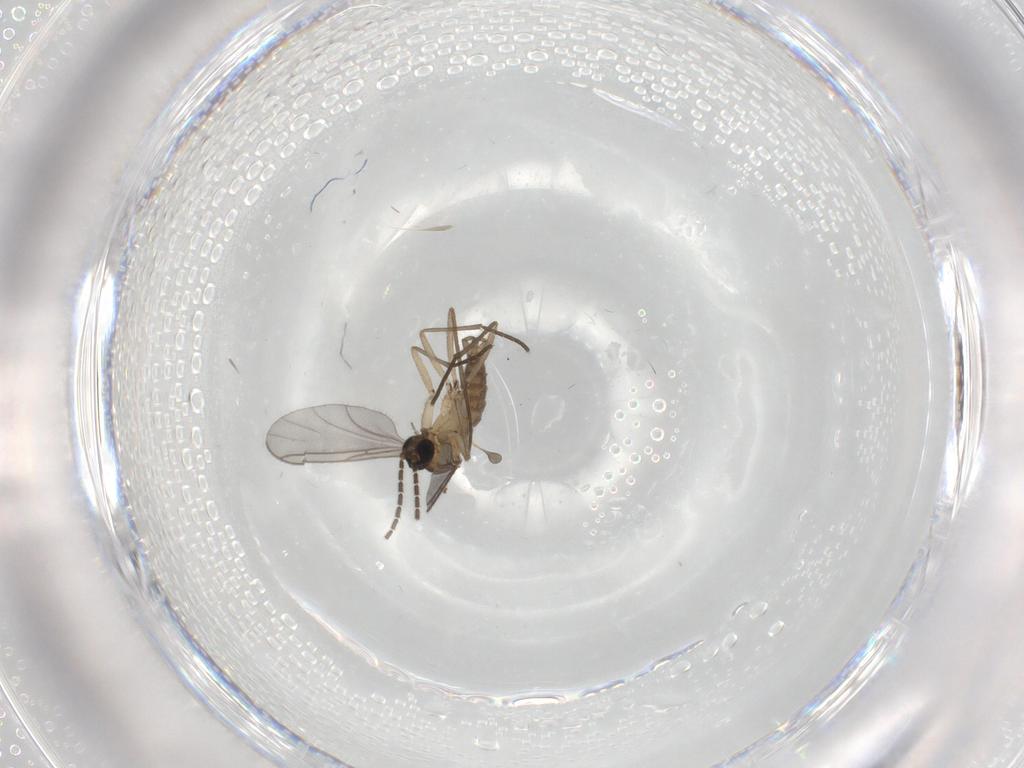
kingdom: Animalia
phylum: Arthropoda
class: Insecta
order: Diptera
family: Sciaridae
